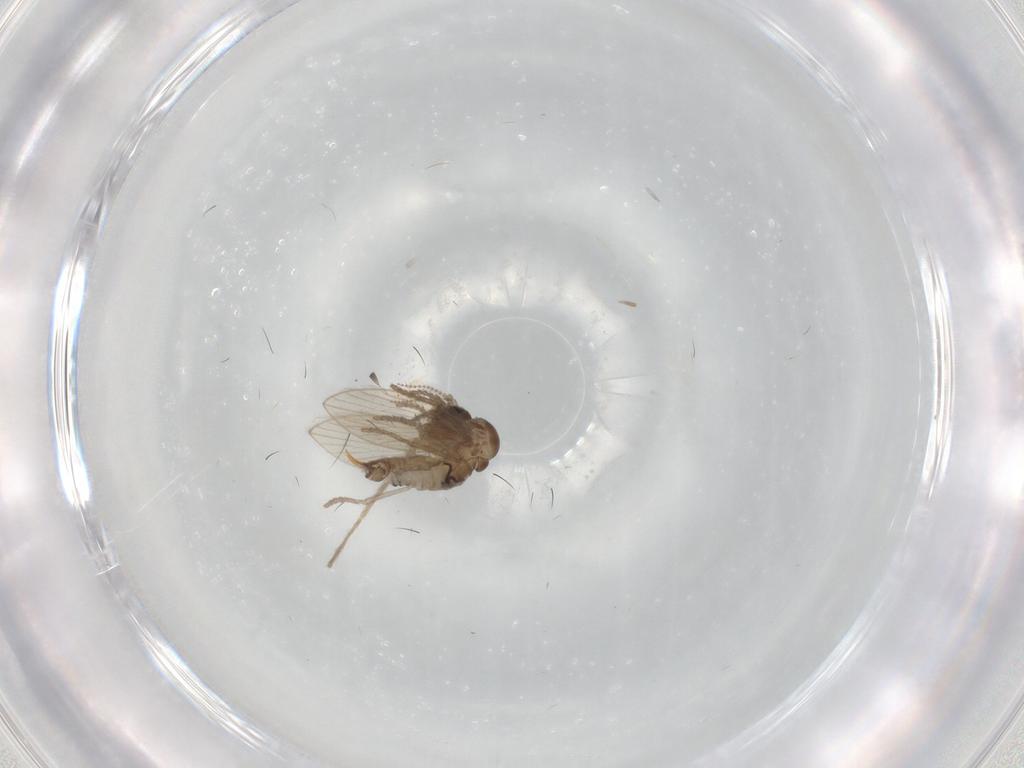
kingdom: Animalia
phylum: Arthropoda
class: Insecta
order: Diptera
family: Psychodidae
